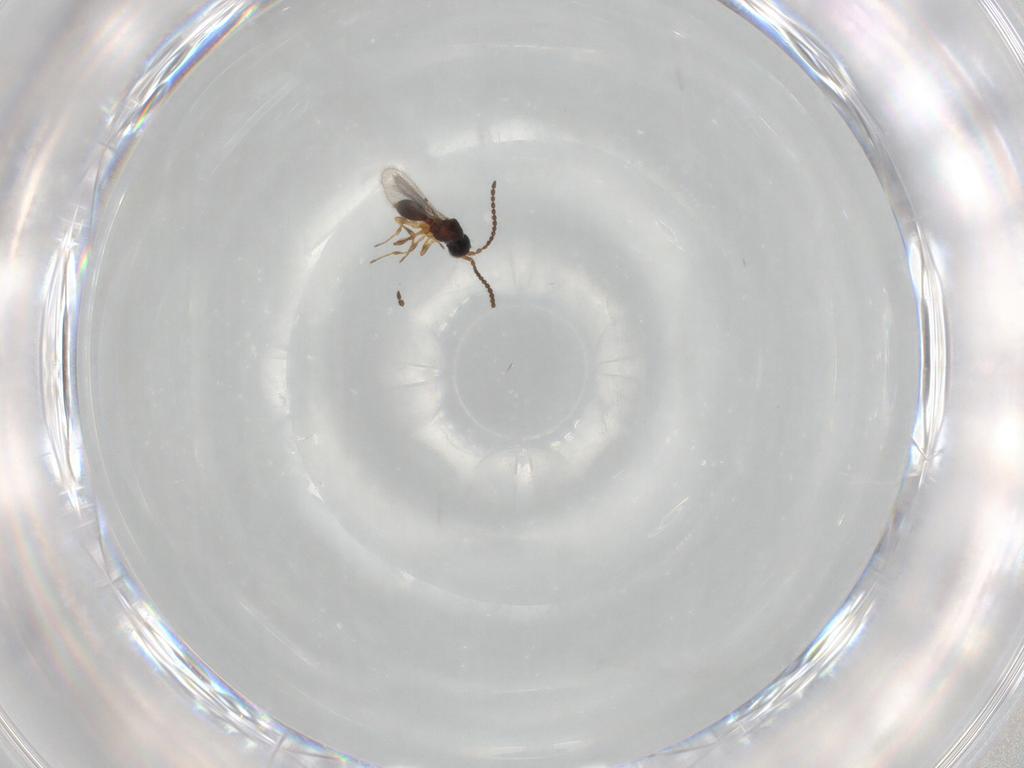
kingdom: Animalia
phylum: Arthropoda
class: Insecta
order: Hymenoptera
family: Diapriidae
